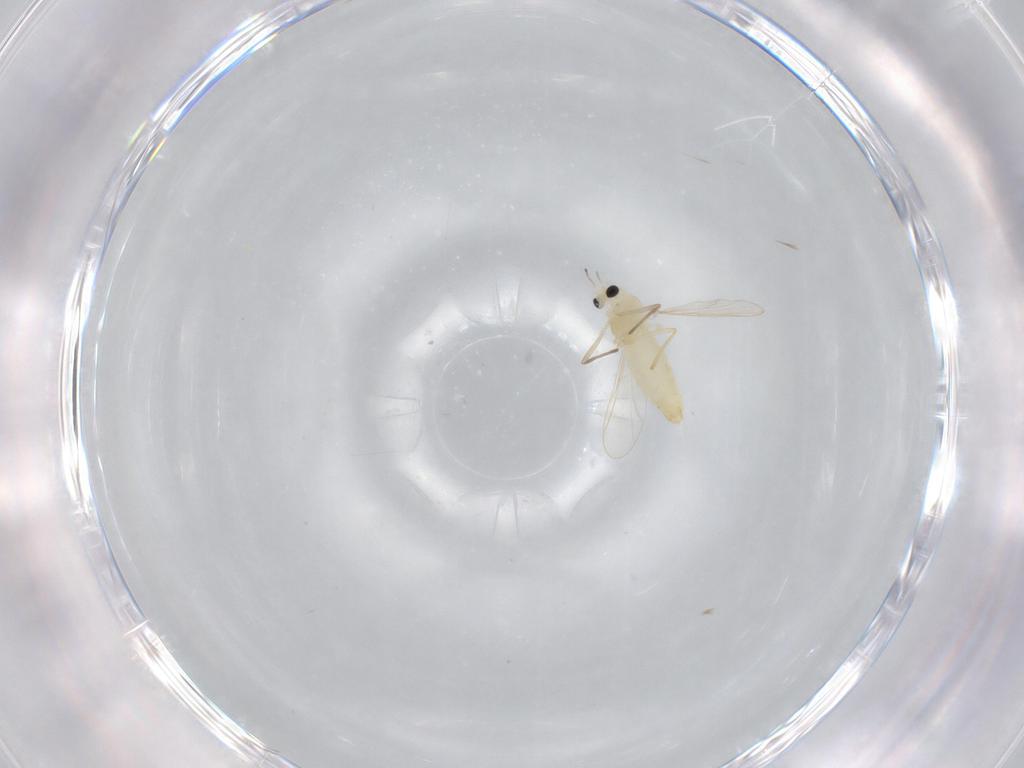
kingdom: Animalia
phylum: Arthropoda
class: Insecta
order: Diptera
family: Chironomidae
